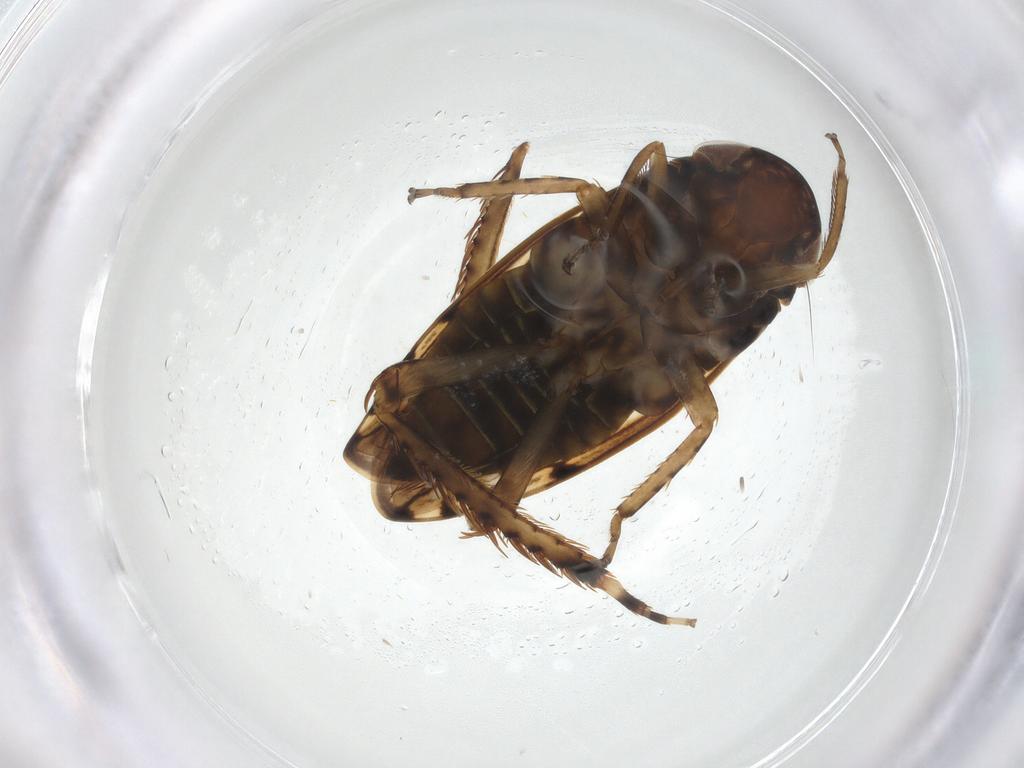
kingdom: Animalia
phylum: Arthropoda
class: Insecta
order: Hemiptera
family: Cicadellidae
